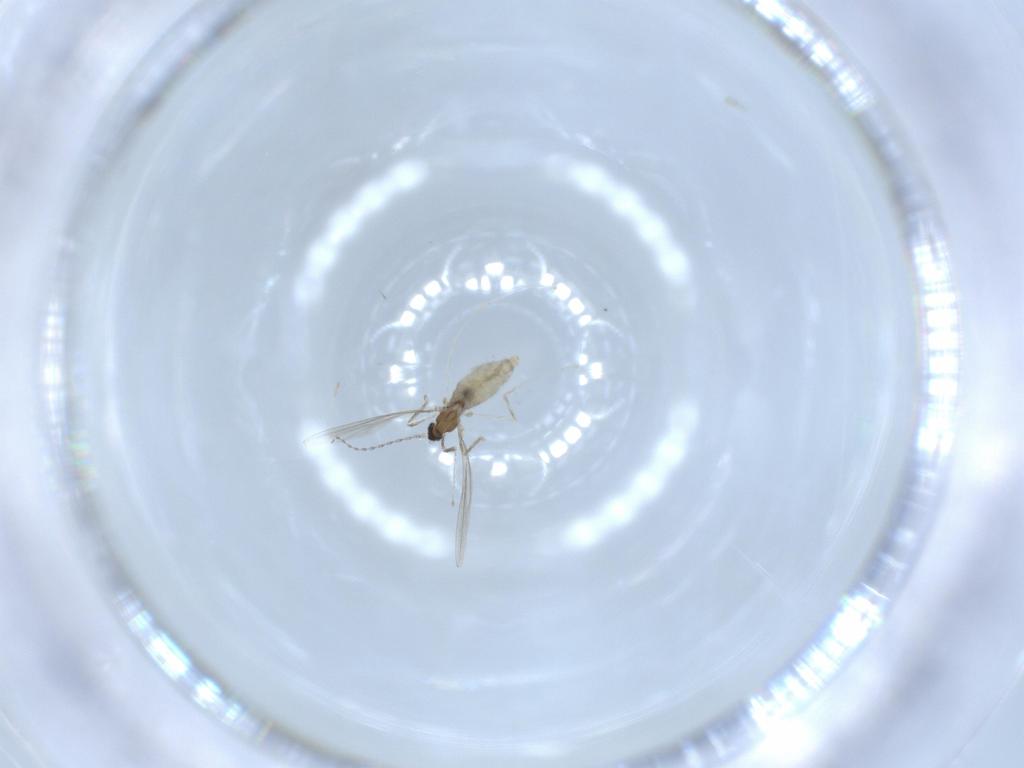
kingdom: Animalia
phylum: Arthropoda
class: Insecta
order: Diptera
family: Cecidomyiidae
